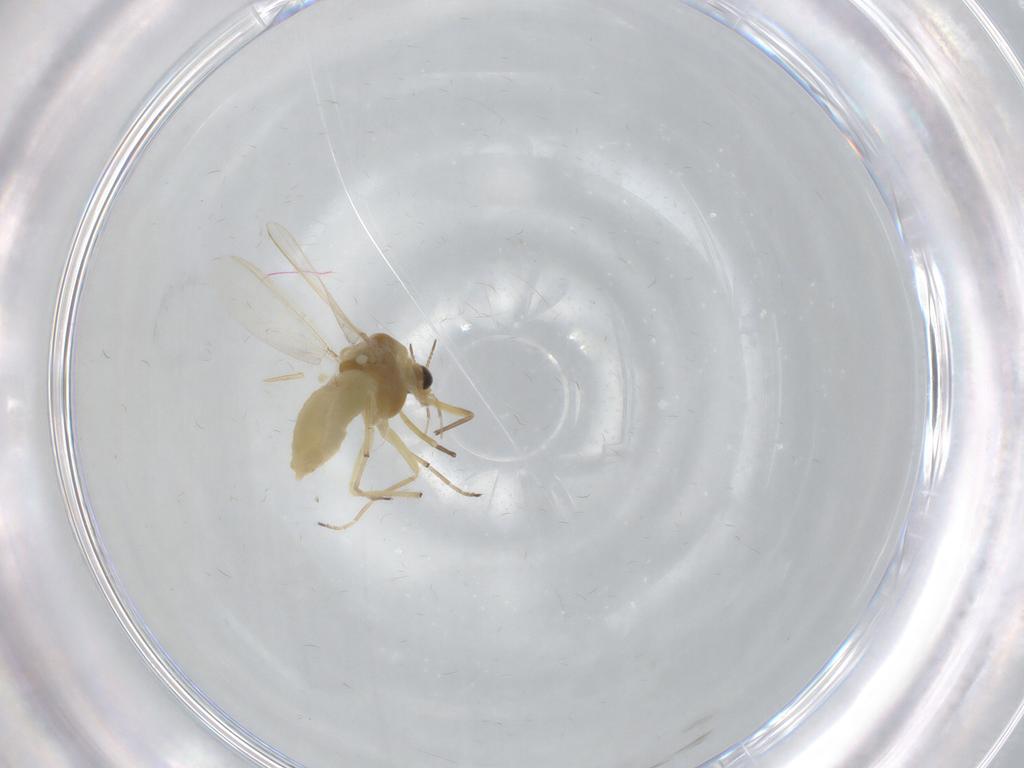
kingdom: Animalia
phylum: Arthropoda
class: Insecta
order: Diptera
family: Chironomidae
